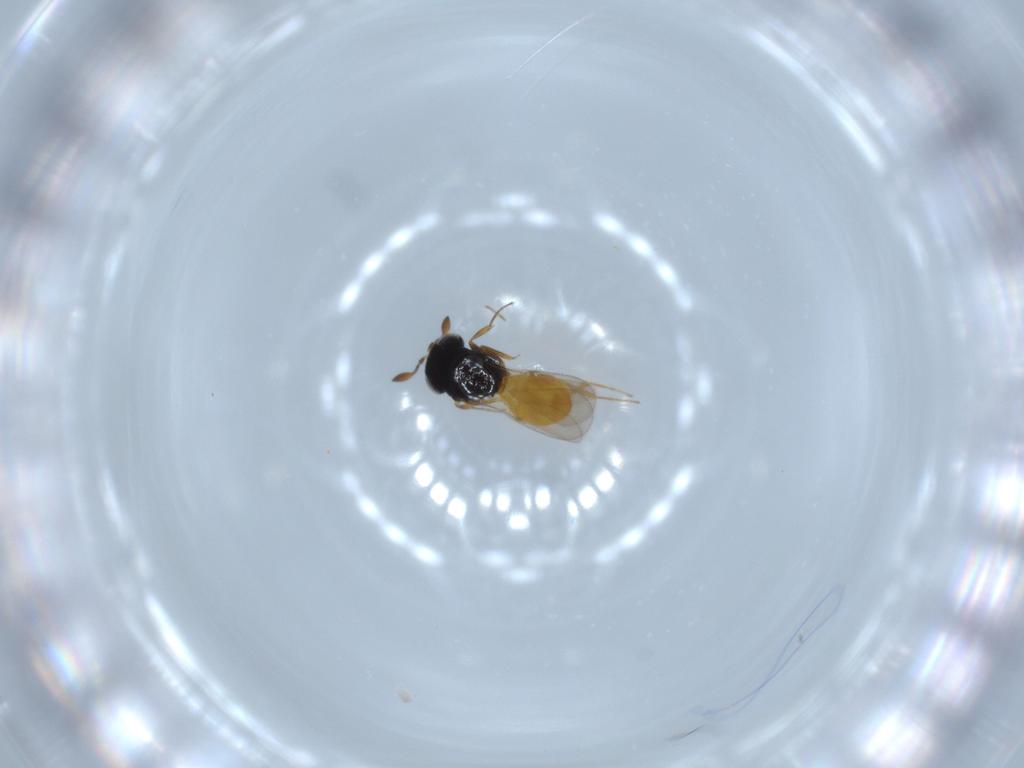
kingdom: Animalia
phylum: Arthropoda
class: Insecta
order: Hymenoptera
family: Scelionidae
